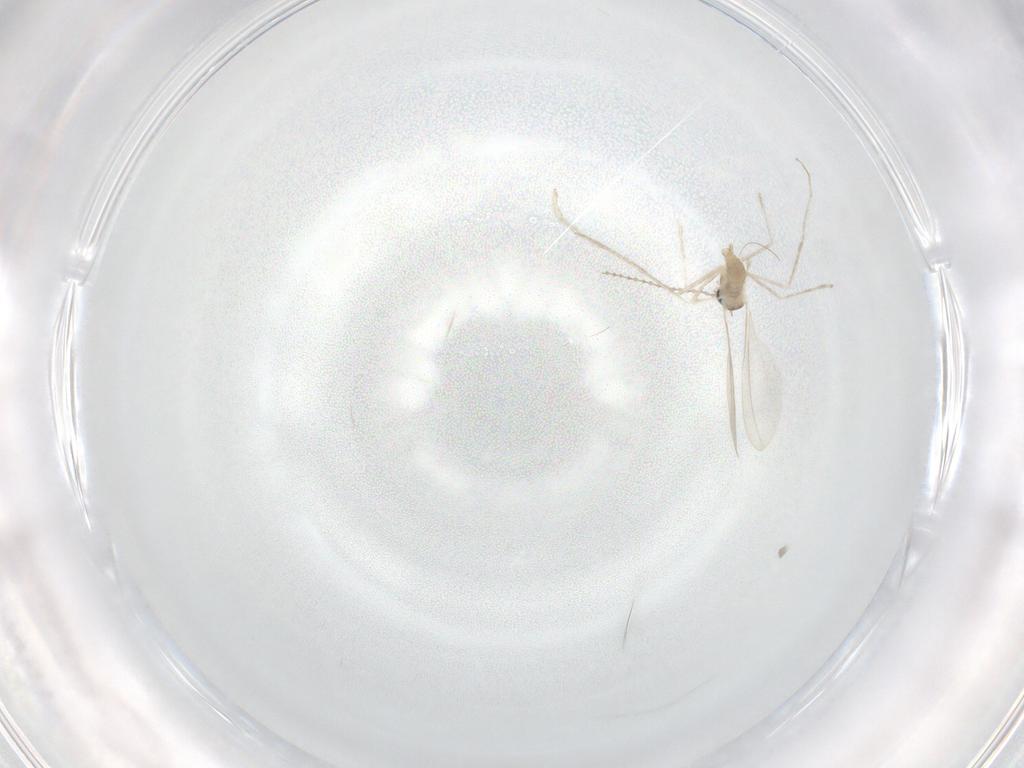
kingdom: Animalia
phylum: Arthropoda
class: Insecta
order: Diptera
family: Cecidomyiidae
